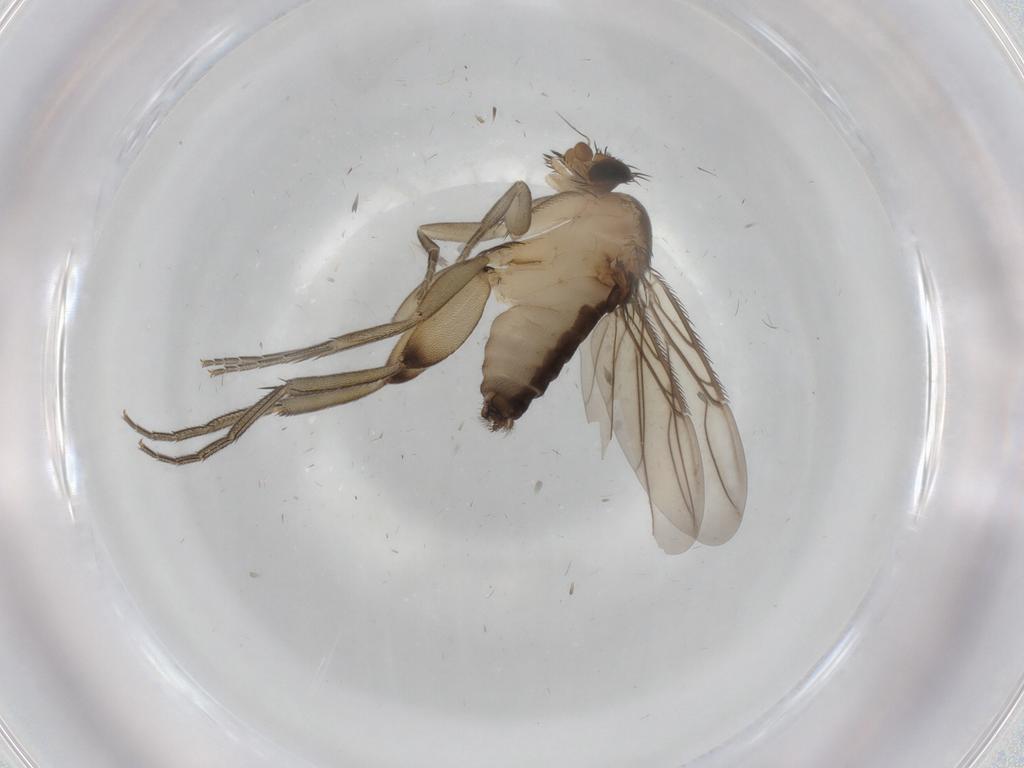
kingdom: Animalia
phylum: Arthropoda
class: Insecta
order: Diptera
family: Phoridae
